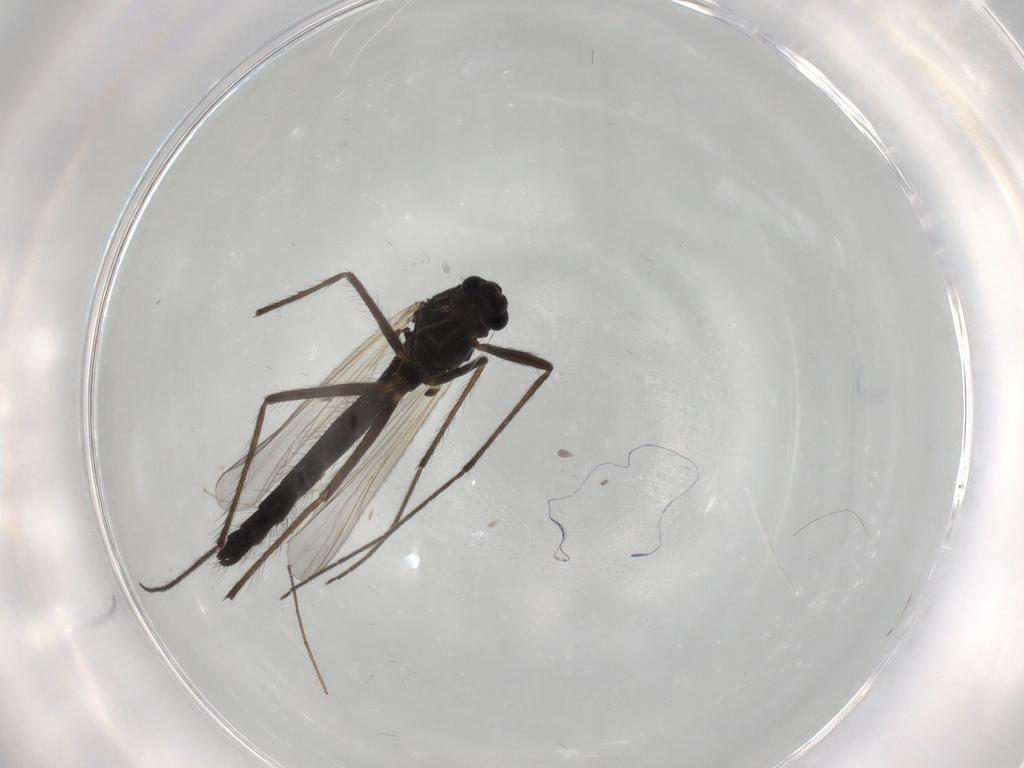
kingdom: Animalia
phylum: Arthropoda
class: Insecta
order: Diptera
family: Chironomidae
